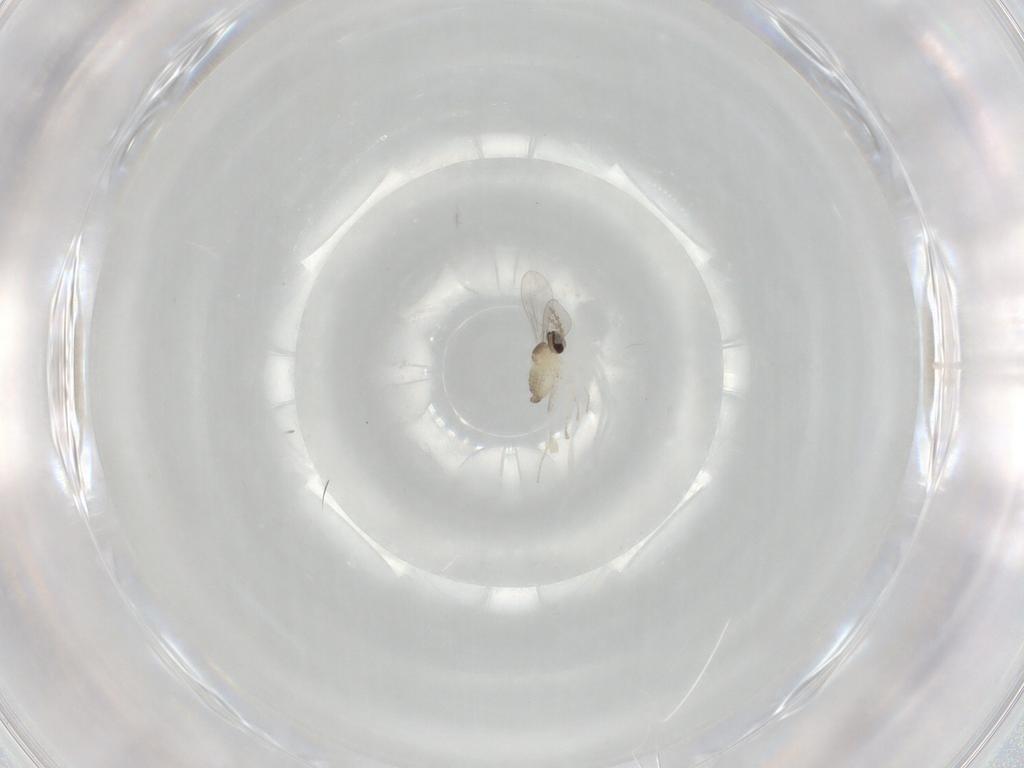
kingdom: Animalia
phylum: Arthropoda
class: Insecta
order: Diptera
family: Cecidomyiidae
